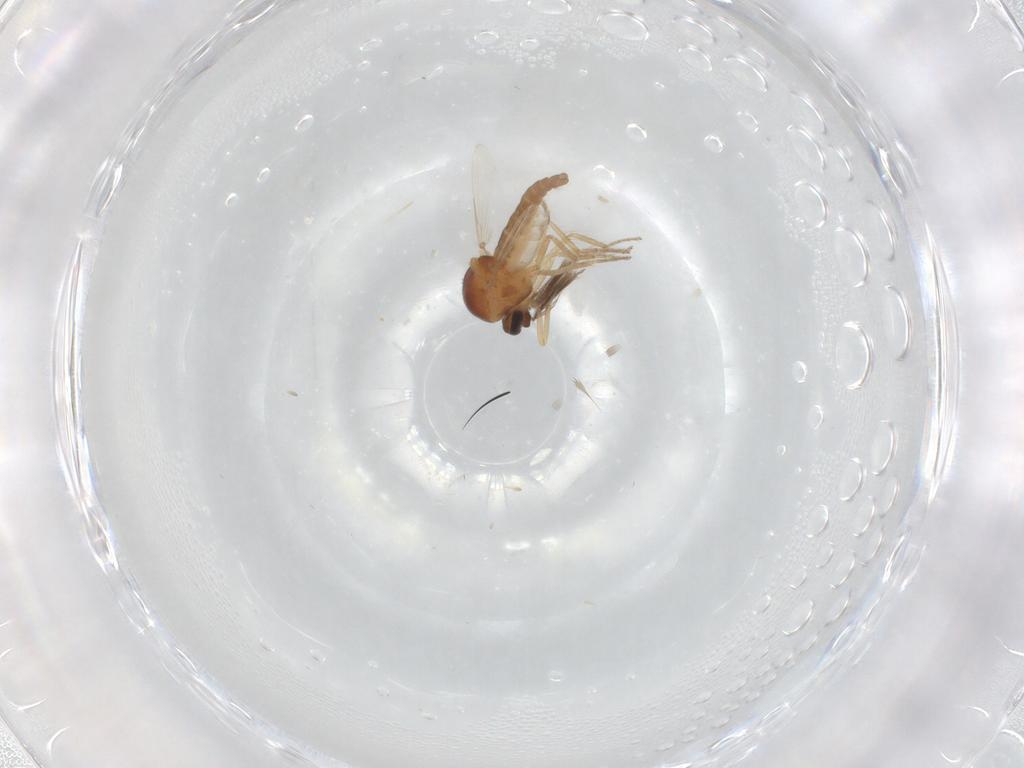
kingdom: Animalia
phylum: Arthropoda
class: Insecta
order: Diptera
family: Ceratopogonidae
